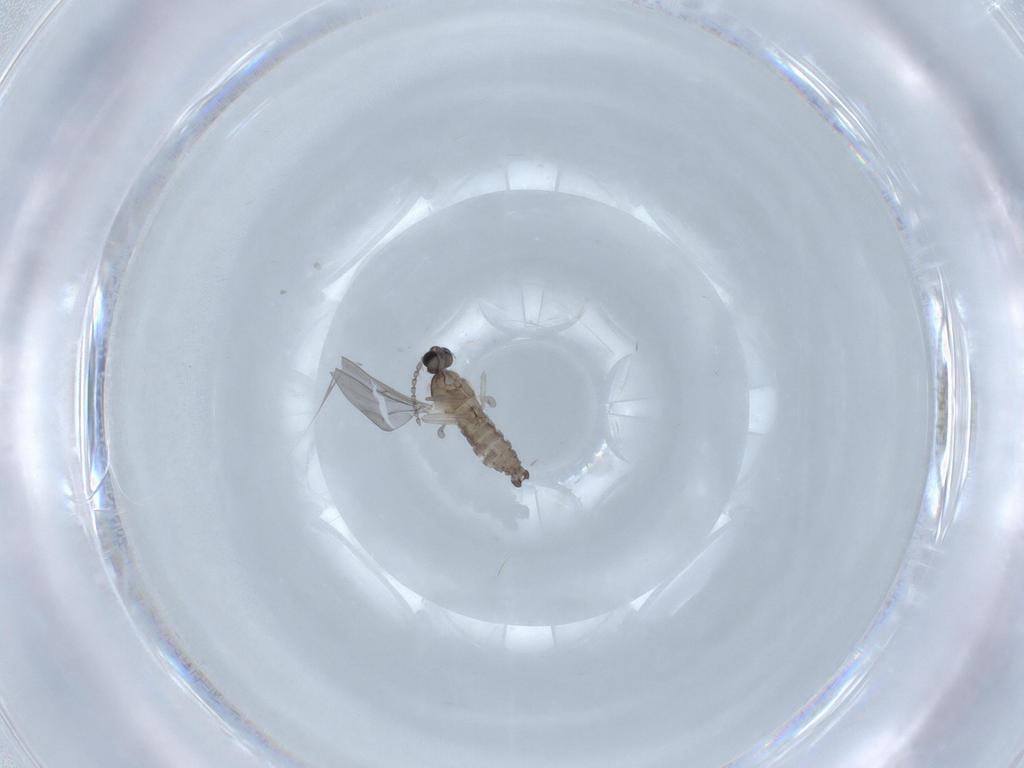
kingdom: Animalia
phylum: Arthropoda
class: Insecta
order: Diptera
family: Cecidomyiidae
